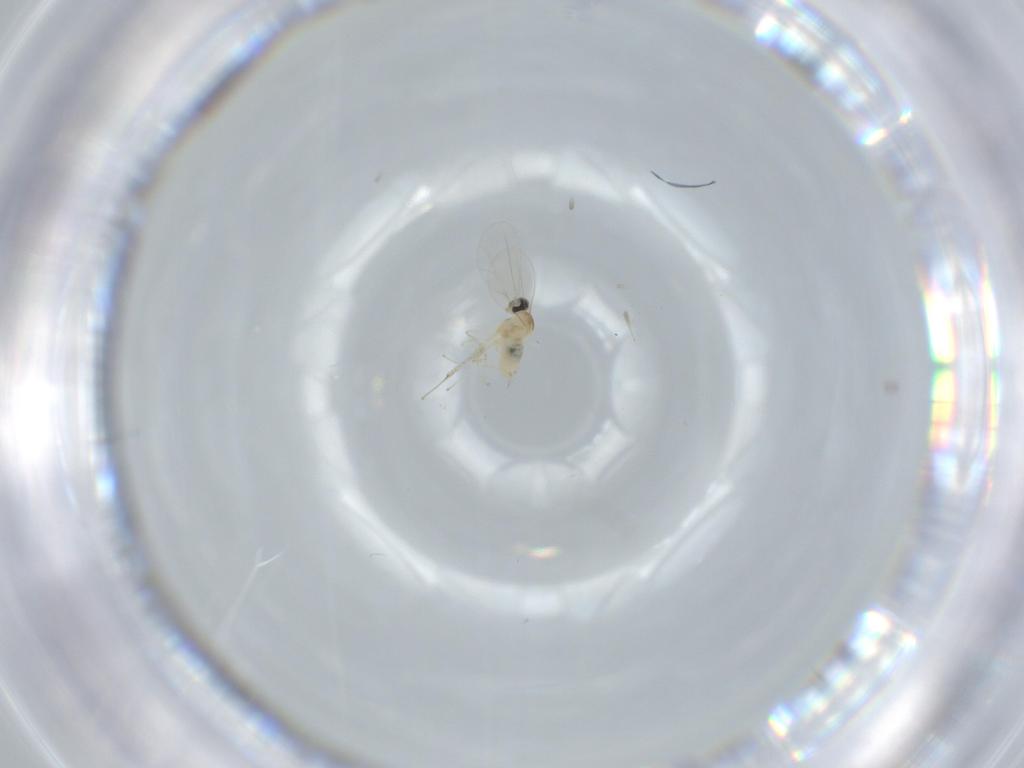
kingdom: Animalia
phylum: Arthropoda
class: Insecta
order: Diptera
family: Cecidomyiidae
